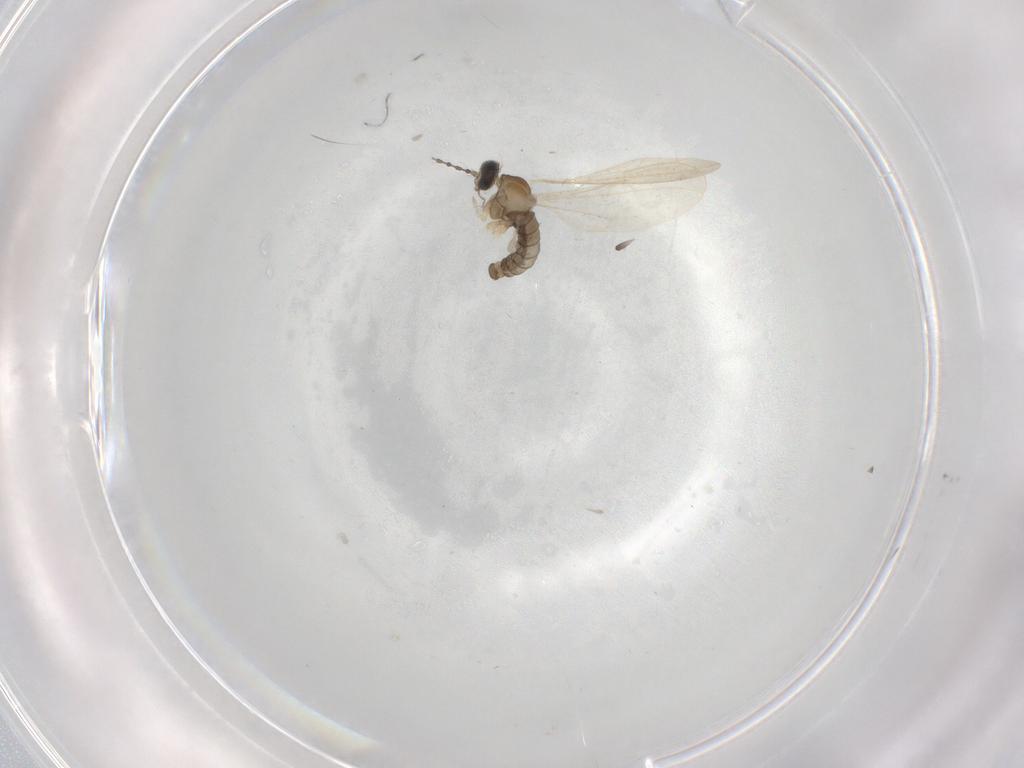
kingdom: Animalia
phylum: Arthropoda
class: Insecta
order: Diptera
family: Cecidomyiidae
